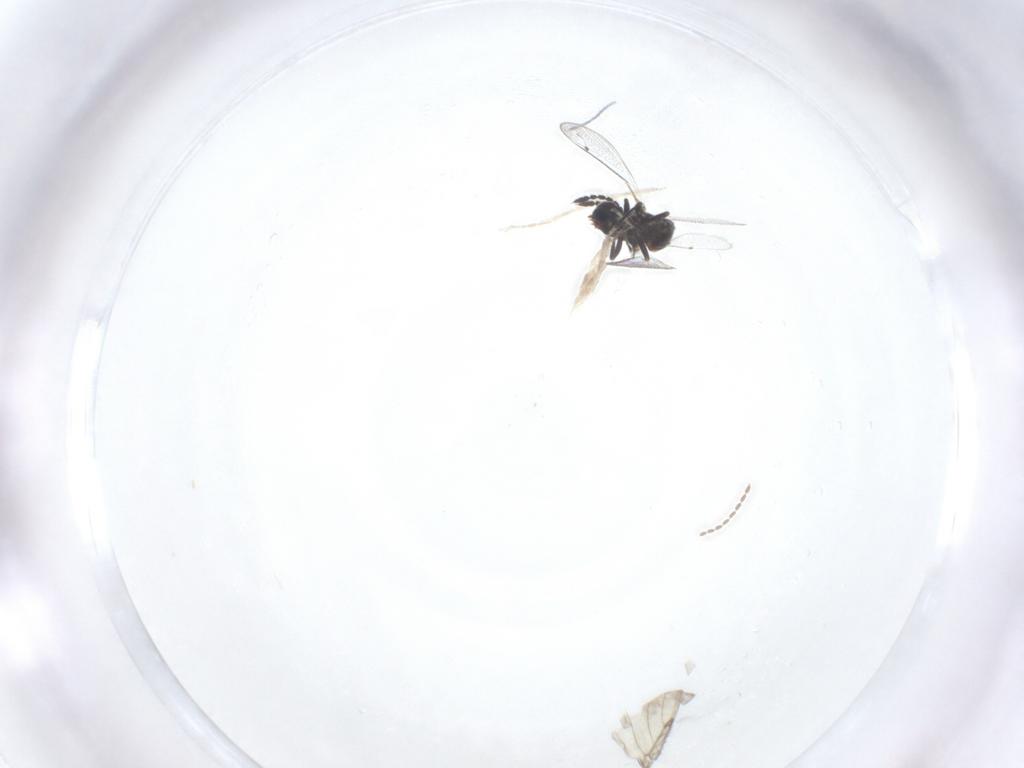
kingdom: Animalia
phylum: Arthropoda
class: Insecta
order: Hymenoptera
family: Eulophidae
